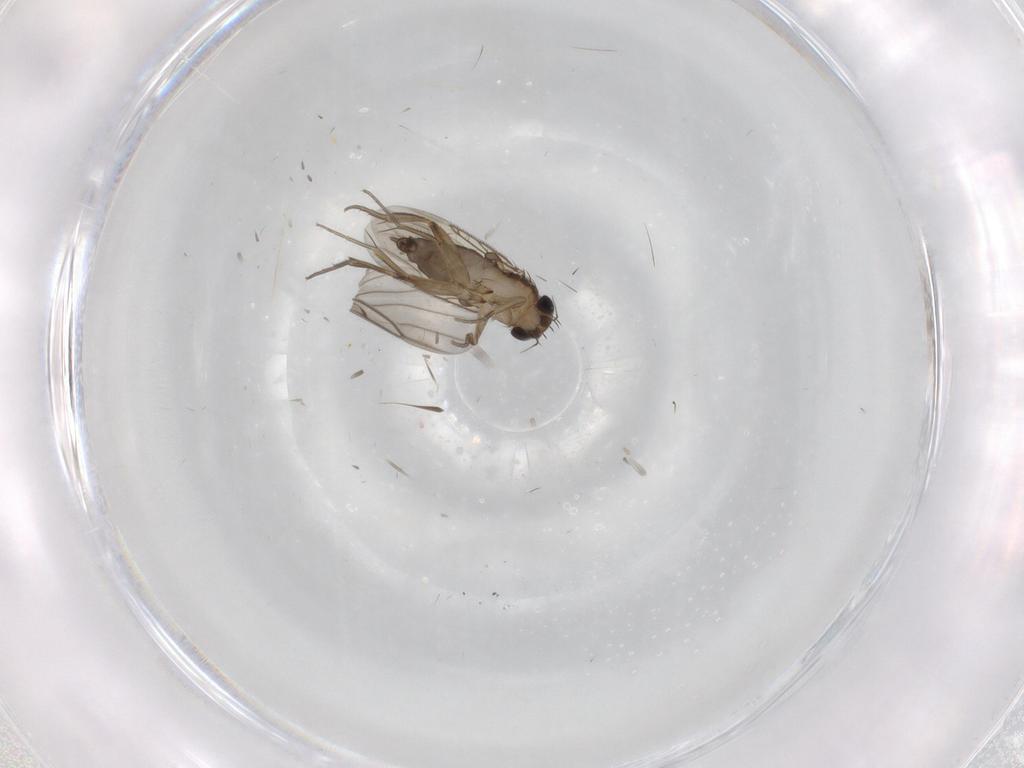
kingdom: Animalia
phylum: Arthropoda
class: Insecta
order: Diptera
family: Phoridae
